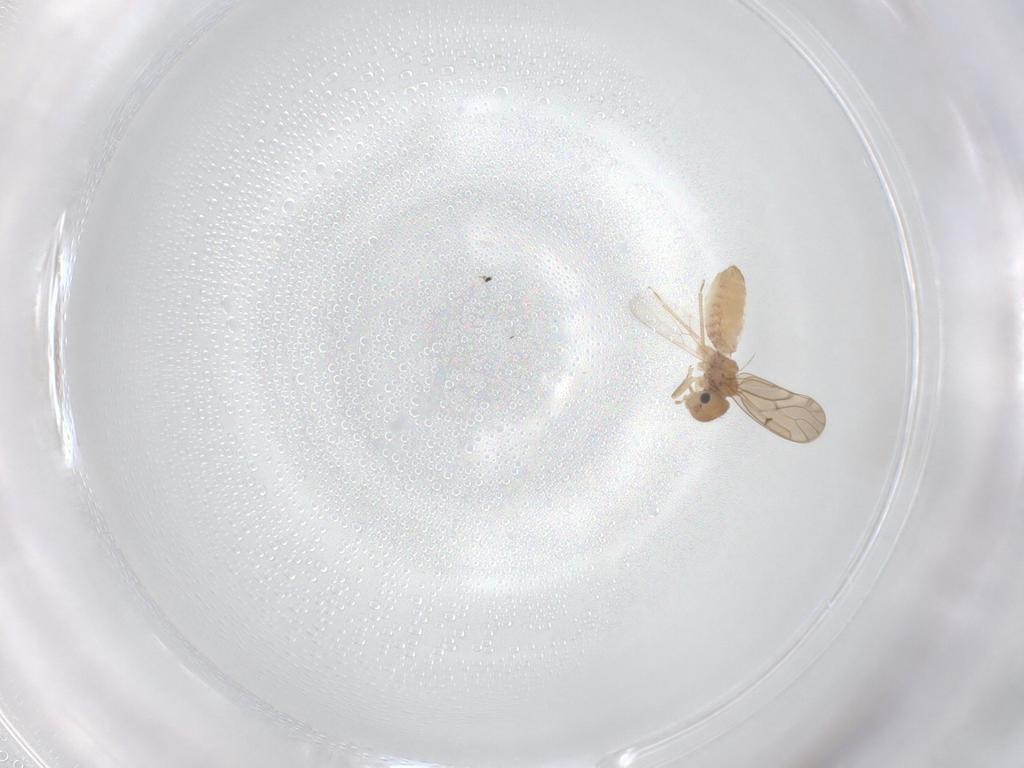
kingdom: Animalia
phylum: Arthropoda
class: Insecta
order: Psocodea
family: Ectopsocidae
